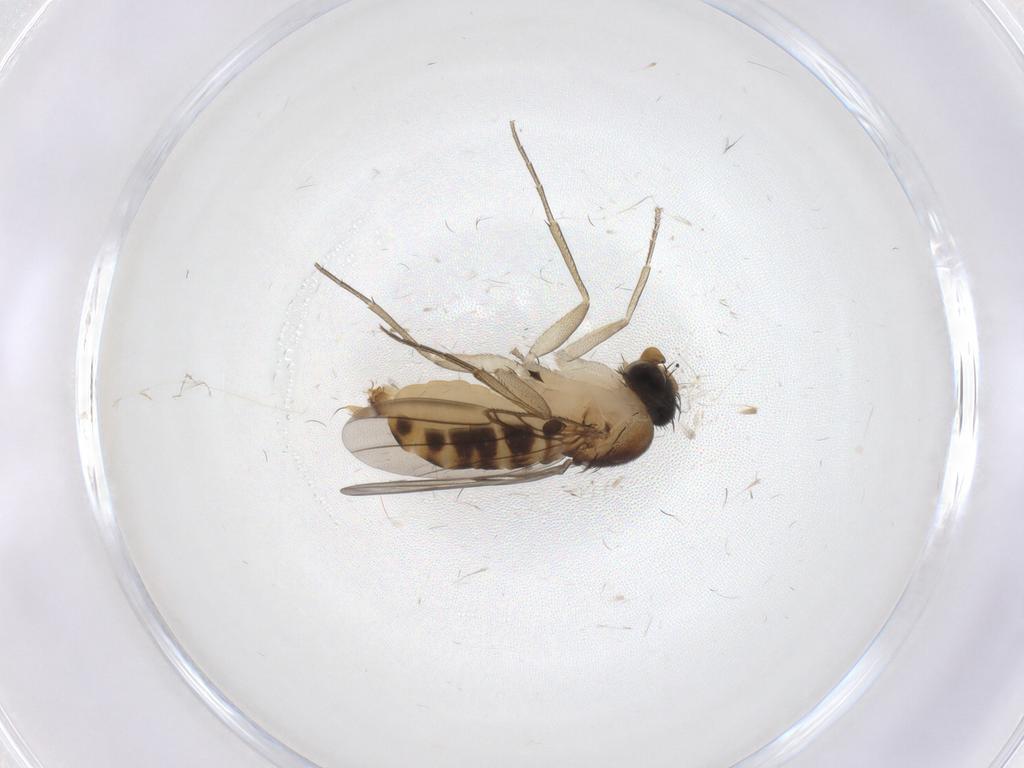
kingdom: Animalia
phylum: Arthropoda
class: Insecta
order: Diptera
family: Phoridae
